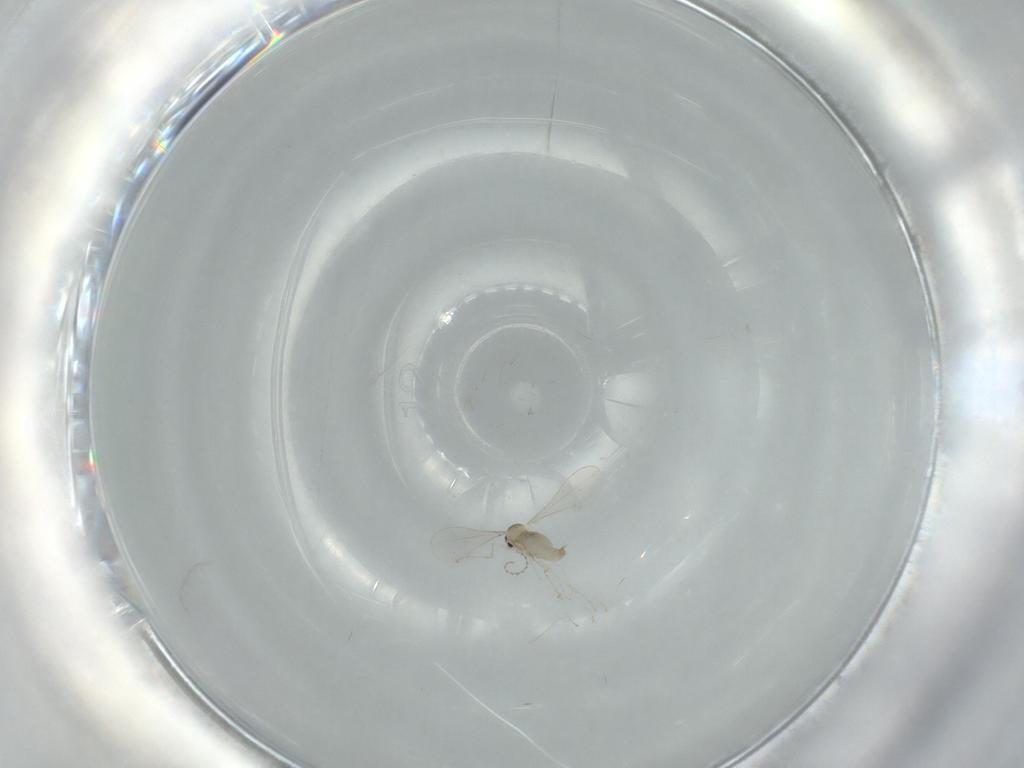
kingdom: Animalia
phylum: Arthropoda
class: Insecta
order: Diptera
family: Cecidomyiidae
